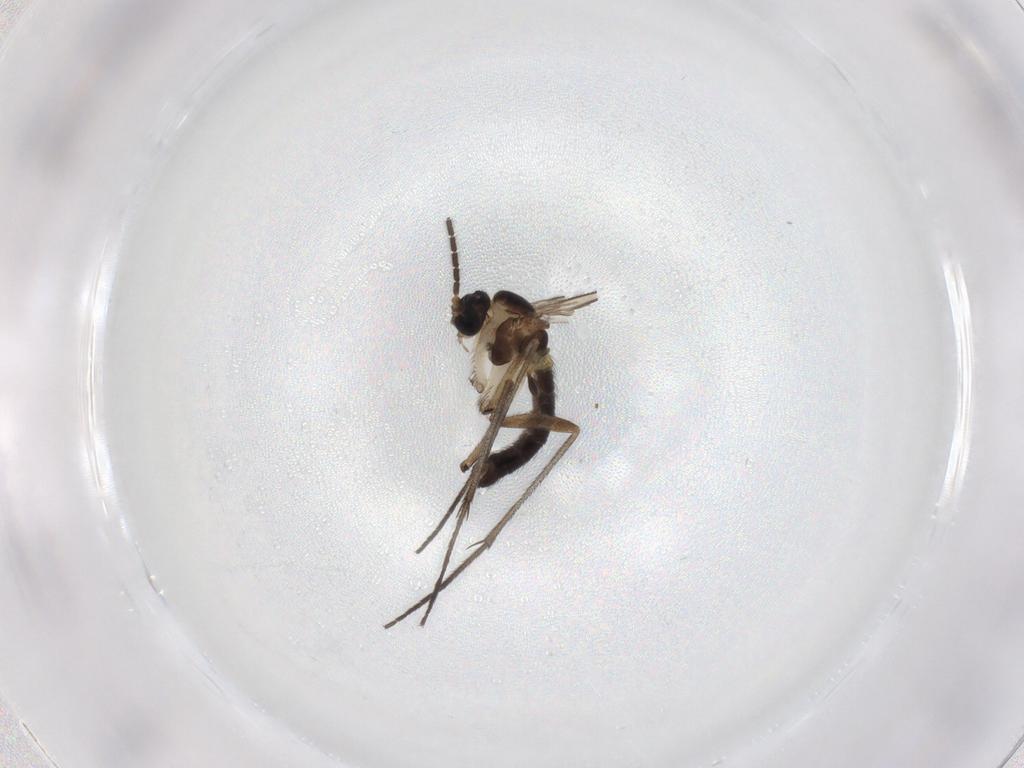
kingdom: Animalia
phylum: Arthropoda
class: Insecta
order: Diptera
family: Sciaridae
